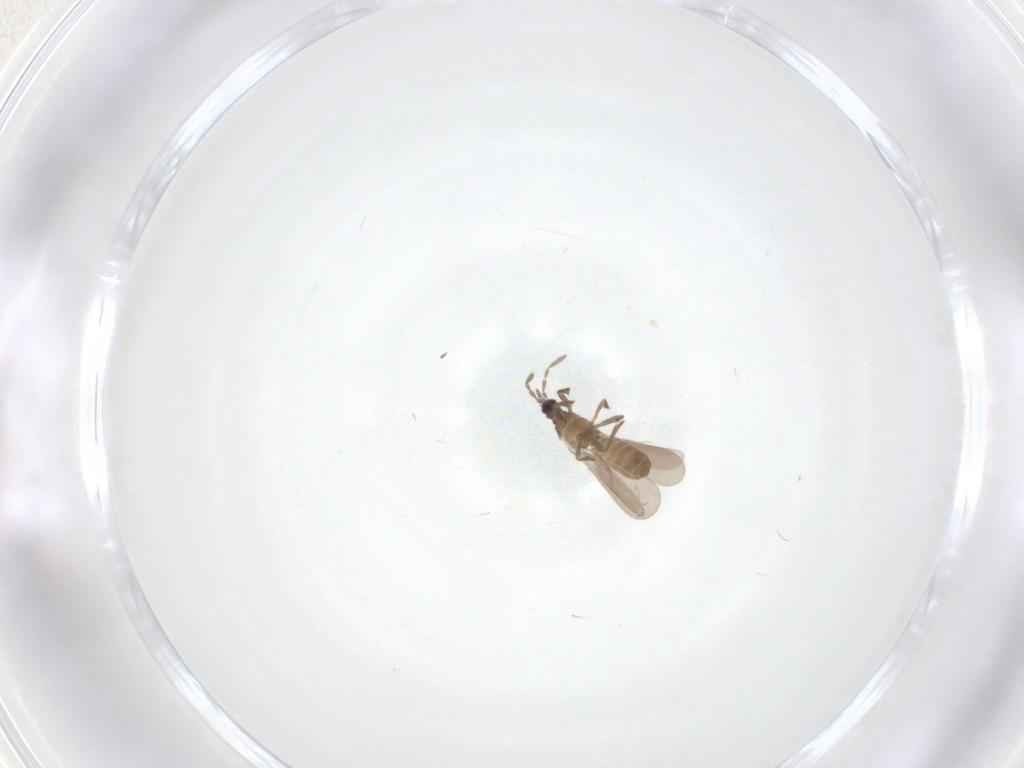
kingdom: Animalia
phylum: Arthropoda
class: Insecta
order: Hemiptera
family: Enicocephalidae
